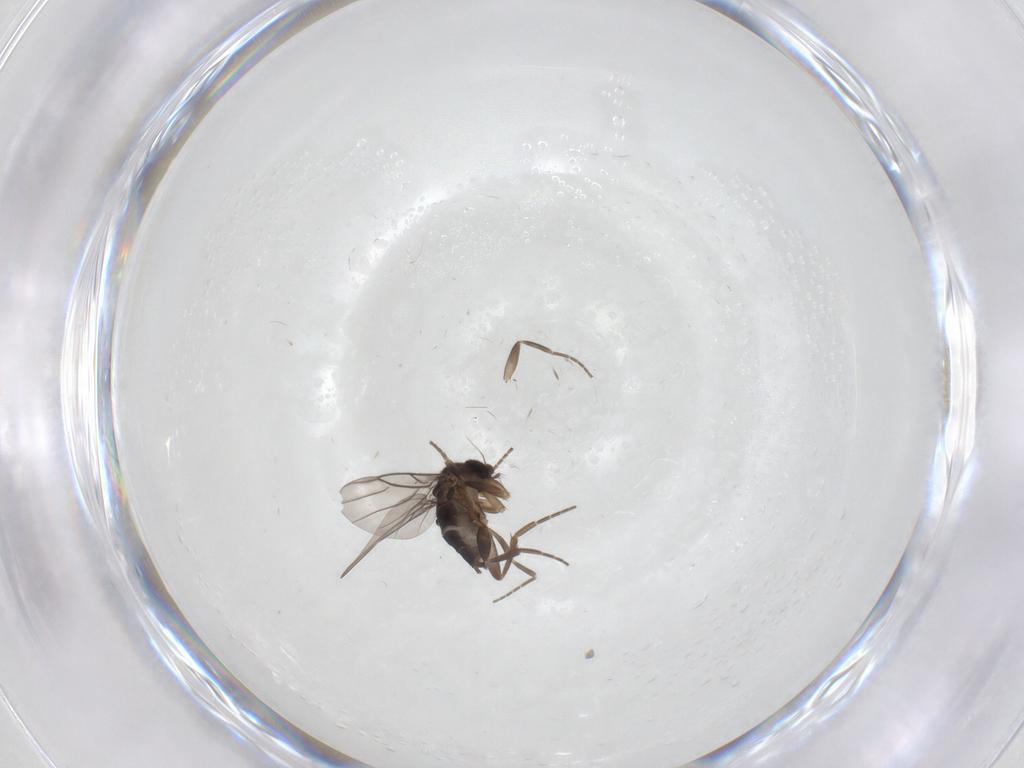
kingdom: Animalia
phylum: Arthropoda
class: Insecta
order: Diptera
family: Phoridae
